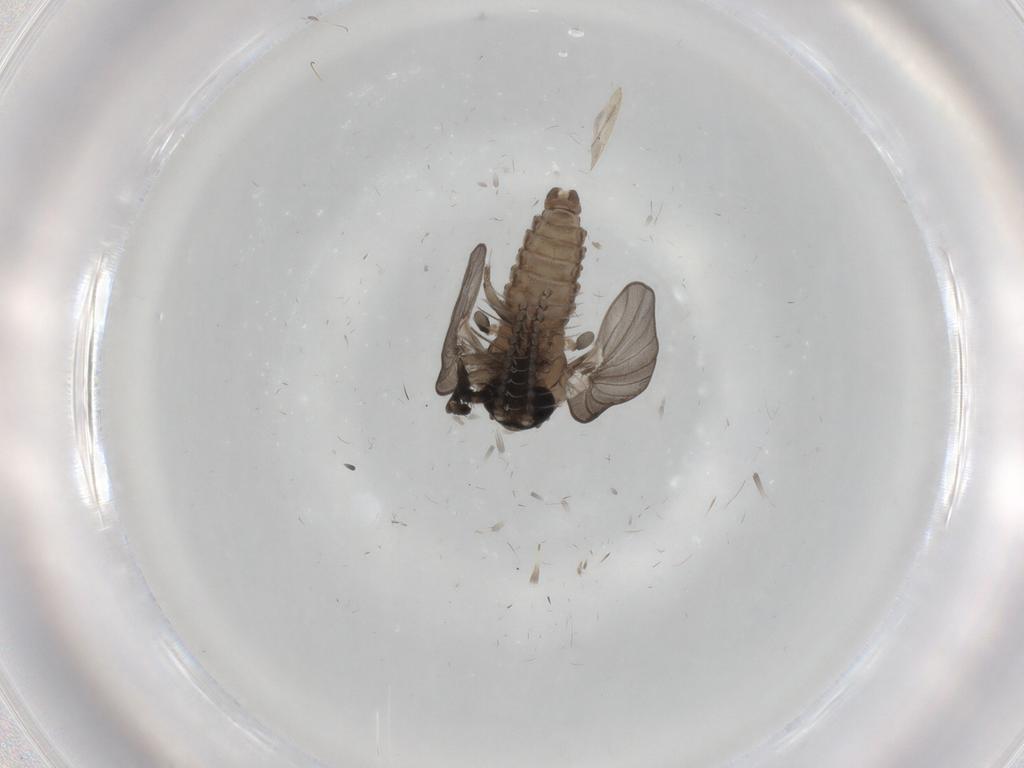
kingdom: Animalia
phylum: Arthropoda
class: Insecta
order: Diptera
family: Psychodidae
